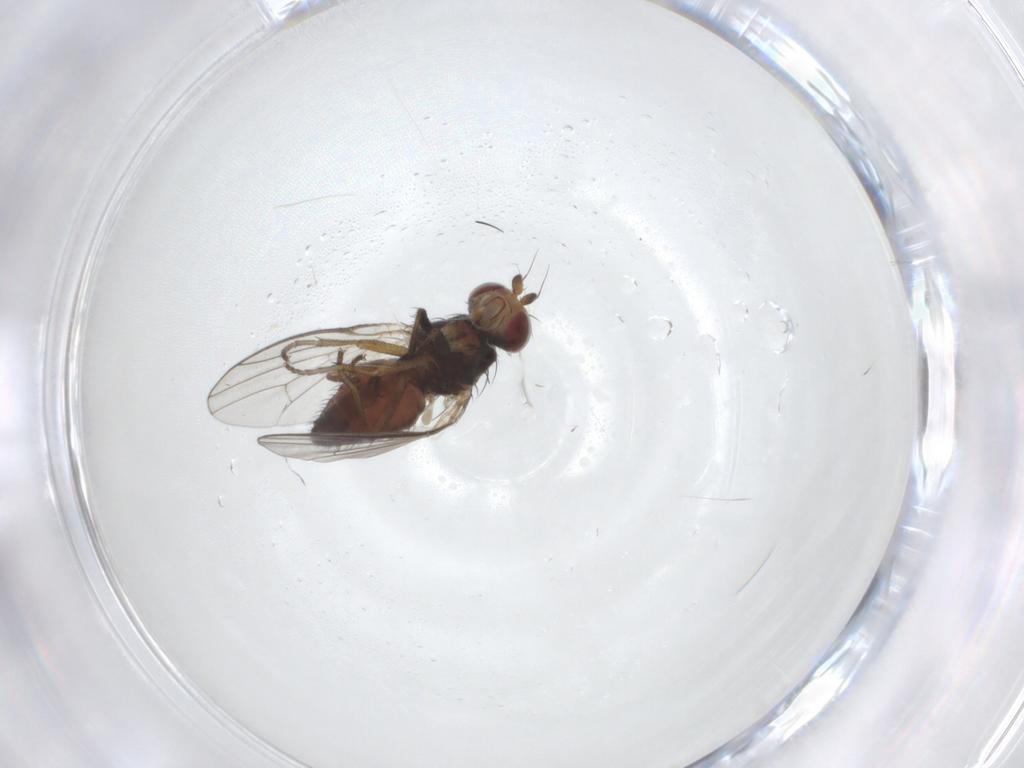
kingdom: Animalia
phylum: Arthropoda
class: Insecta
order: Diptera
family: Heleomyzidae
